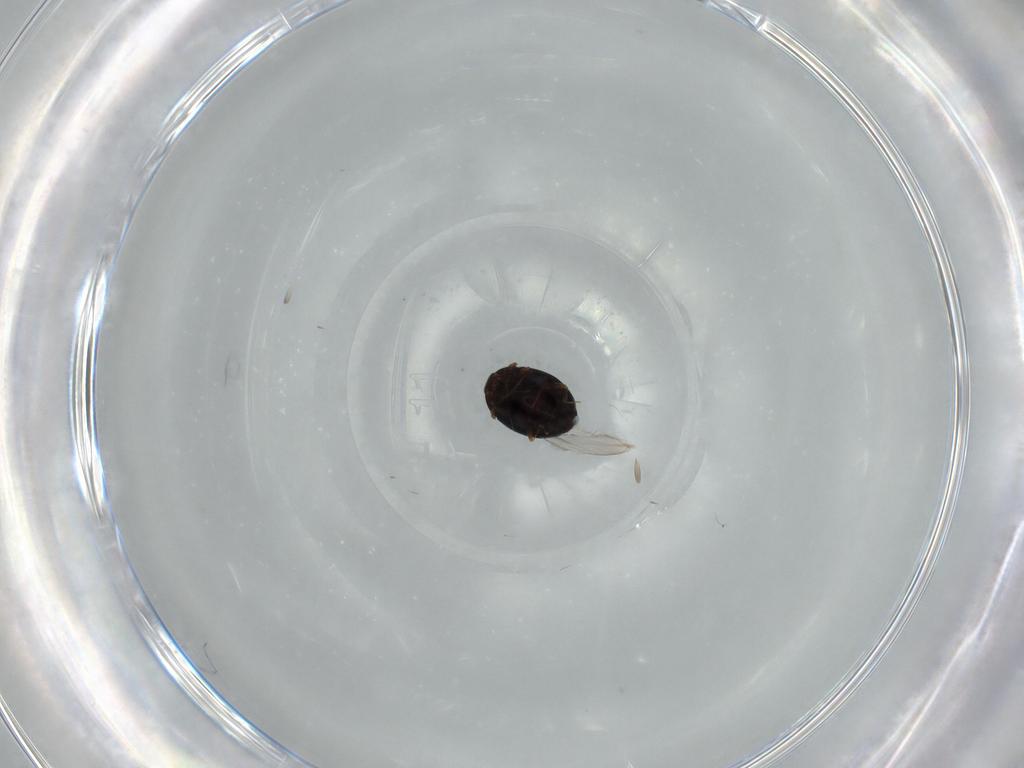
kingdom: Animalia
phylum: Arthropoda
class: Insecta
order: Coleoptera
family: Corylophidae
